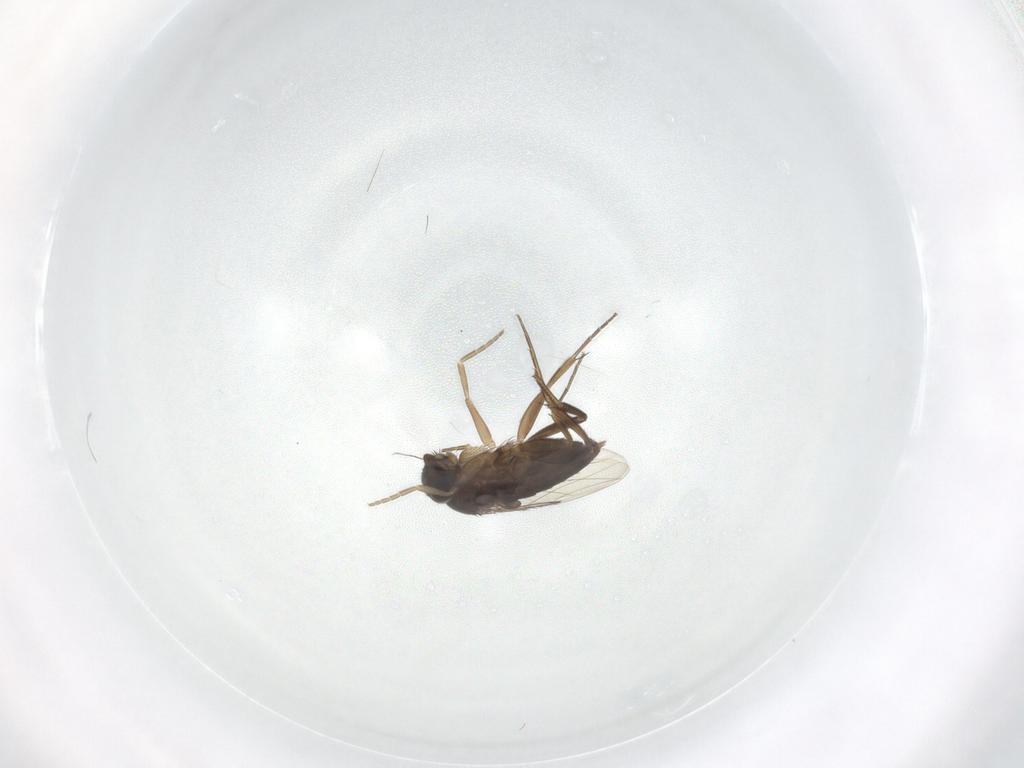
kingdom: Animalia
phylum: Arthropoda
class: Insecta
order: Diptera
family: Phoridae
